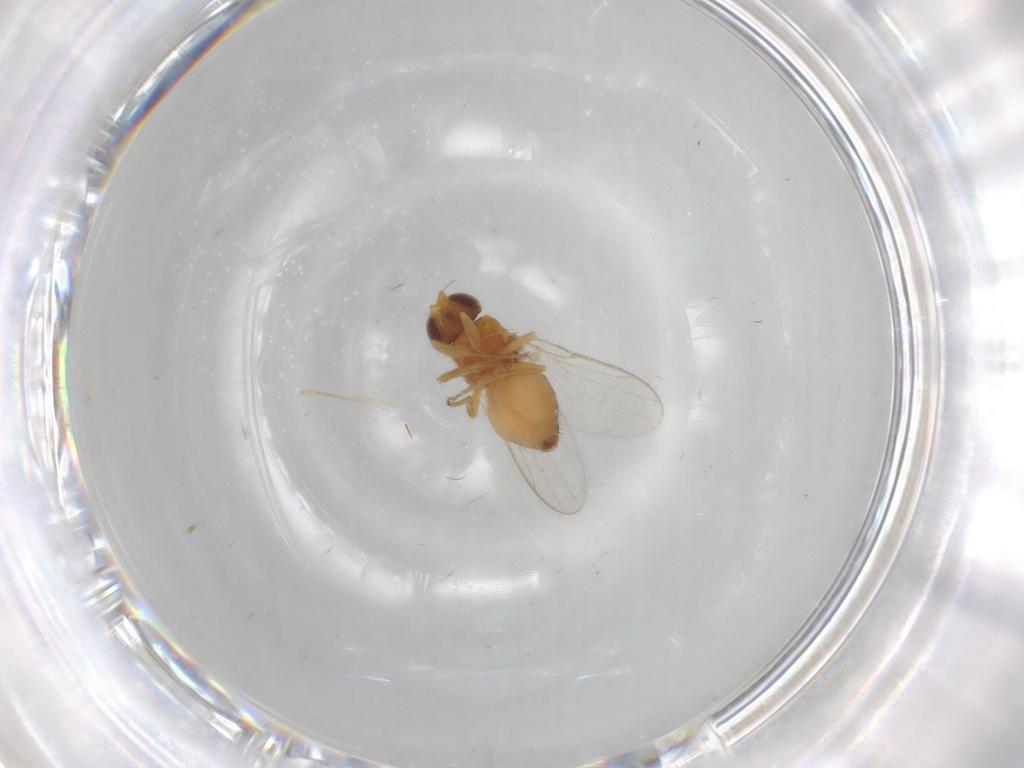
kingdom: Animalia
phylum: Arthropoda
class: Insecta
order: Diptera
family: Chloropidae
